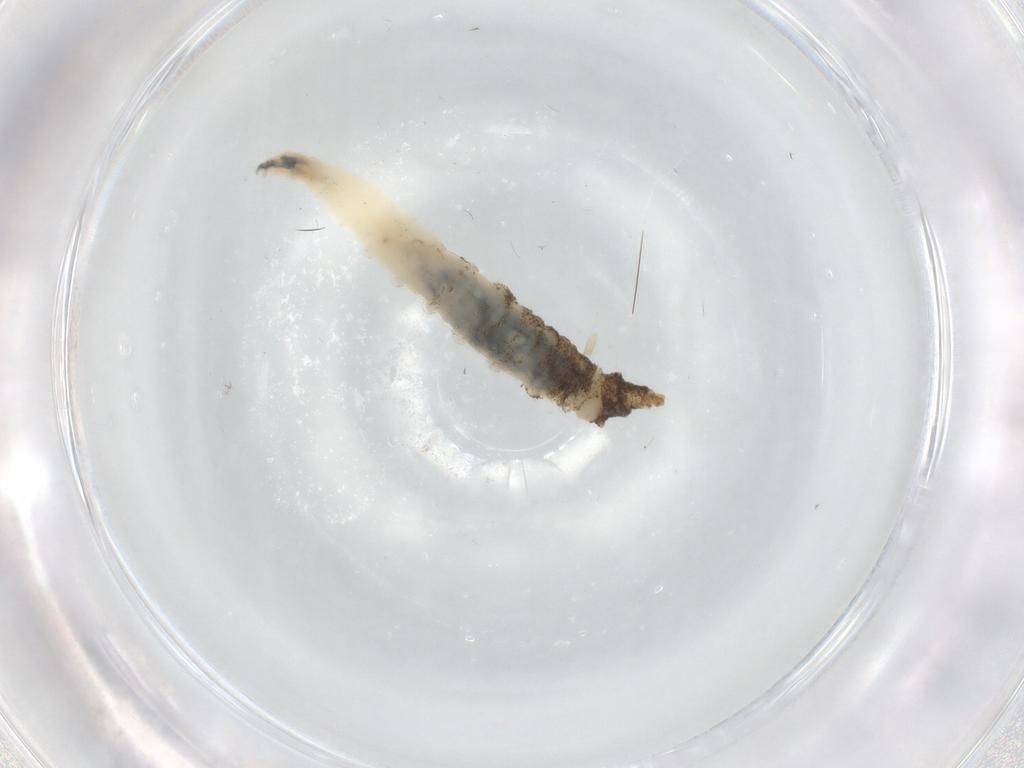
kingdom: Animalia
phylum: Arthropoda
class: Insecta
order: Diptera
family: Chironomidae
